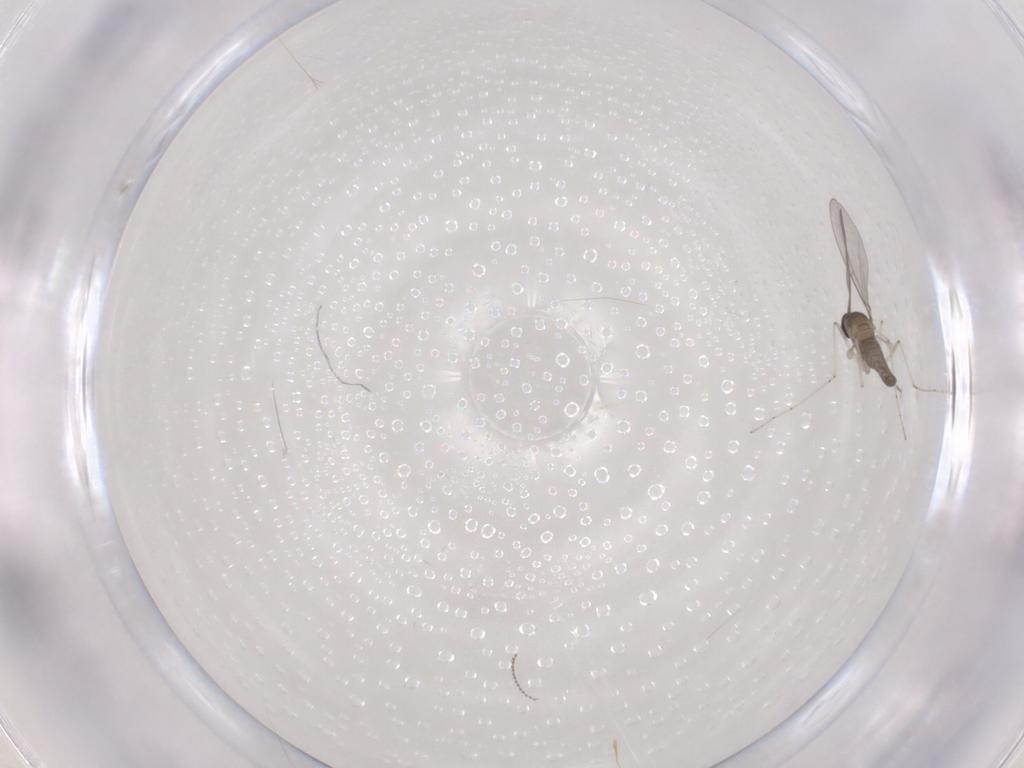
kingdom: Animalia
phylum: Arthropoda
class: Insecta
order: Diptera
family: Cecidomyiidae
